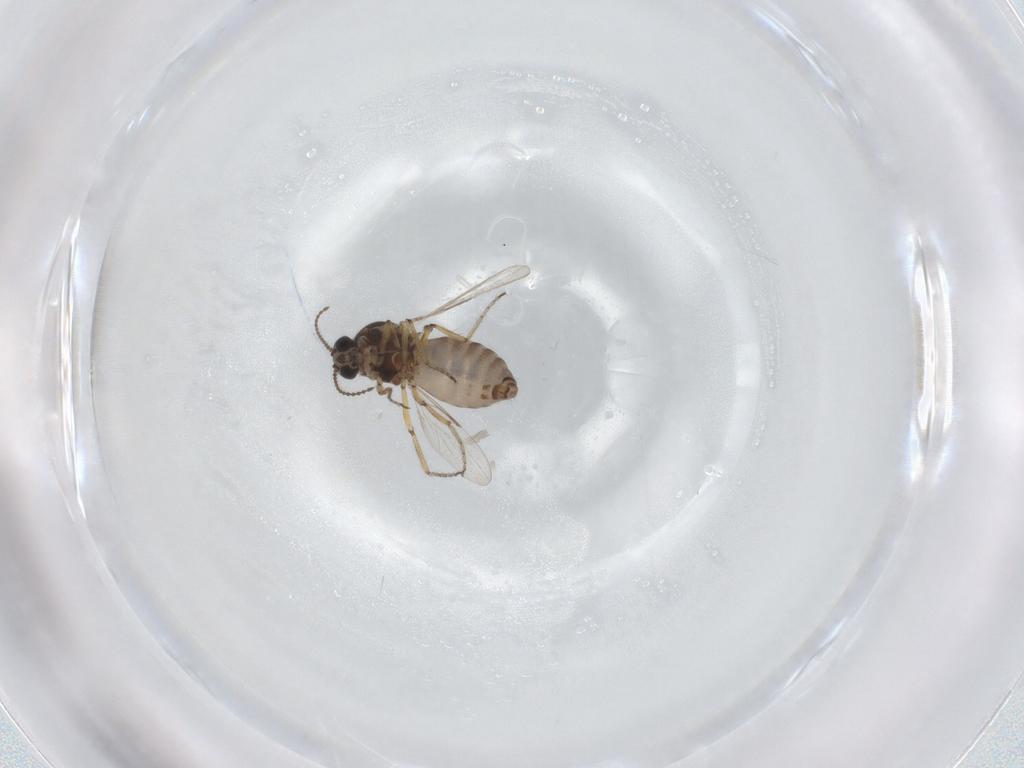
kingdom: Animalia
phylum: Arthropoda
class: Insecta
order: Diptera
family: Ceratopogonidae
